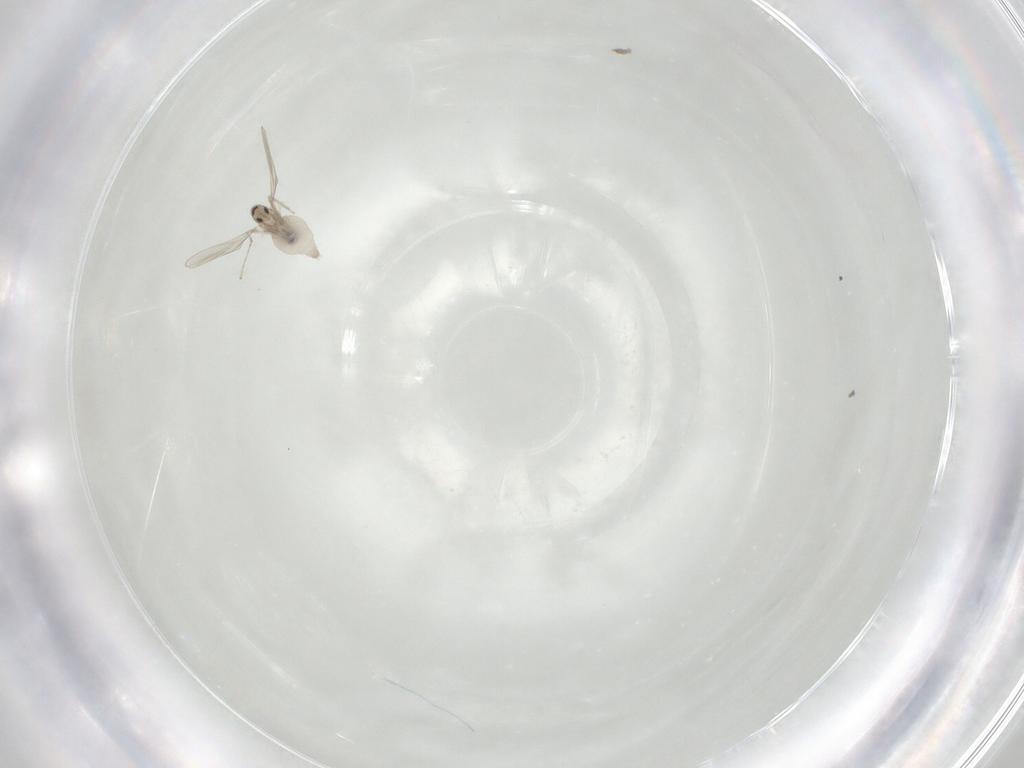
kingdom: Animalia
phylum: Arthropoda
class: Insecta
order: Diptera
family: Cecidomyiidae
